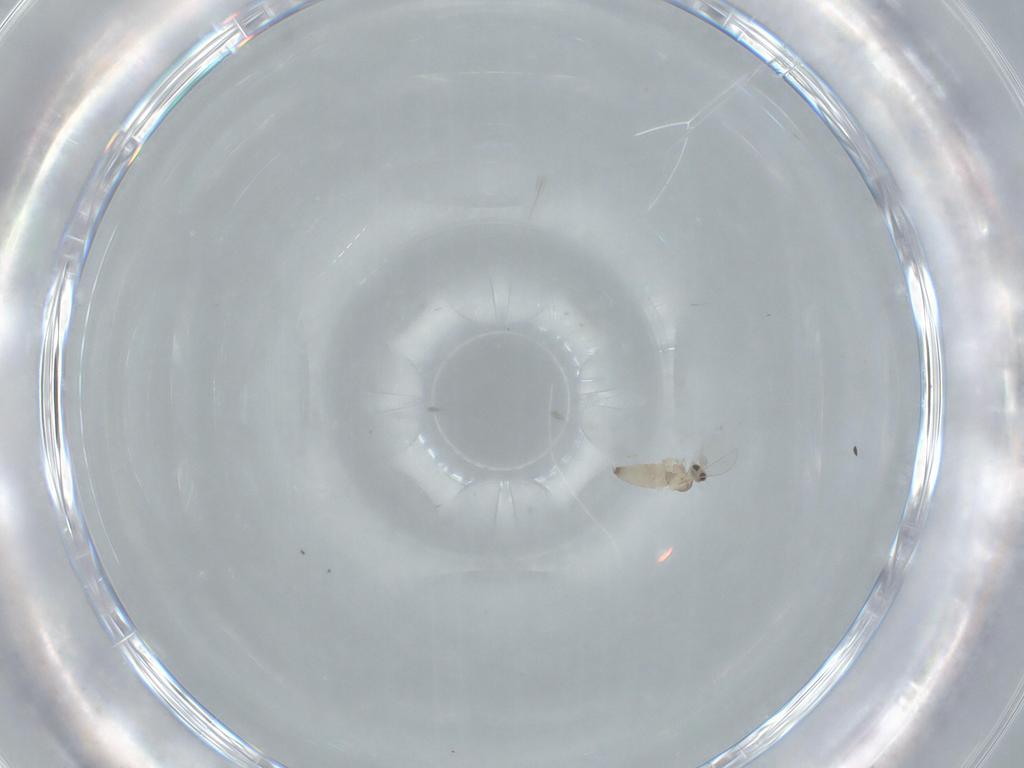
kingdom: Animalia
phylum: Arthropoda
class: Insecta
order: Diptera
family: Cecidomyiidae
